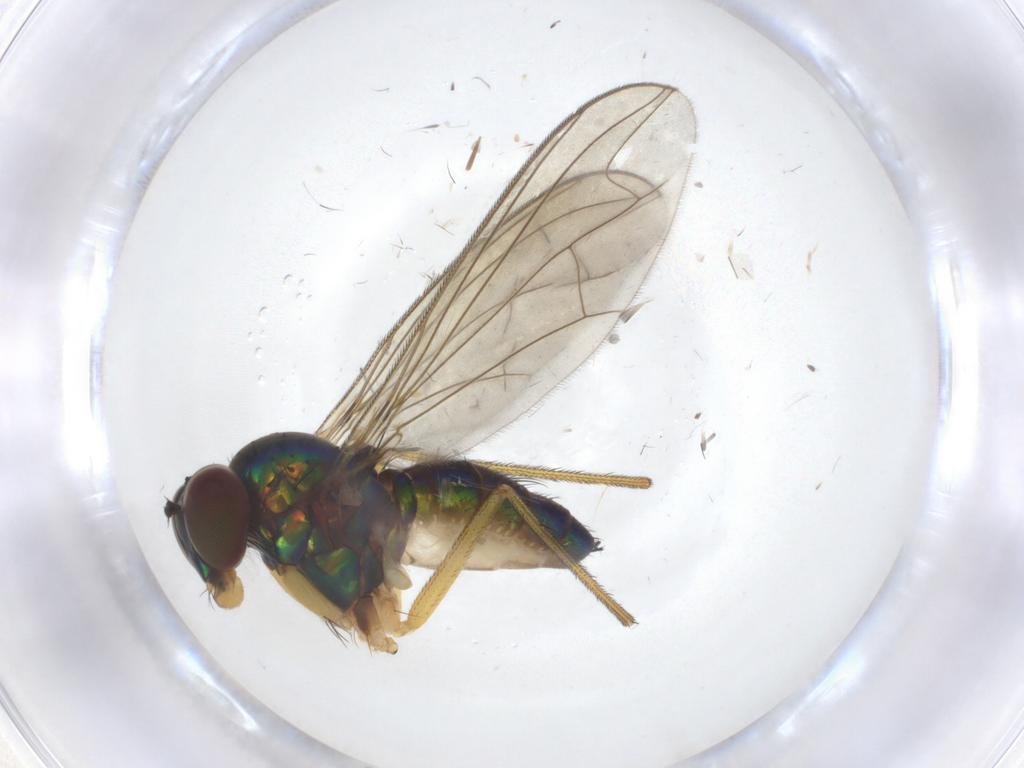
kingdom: Animalia
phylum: Arthropoda
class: Insecta
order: Diptera
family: Dolichopodidae
